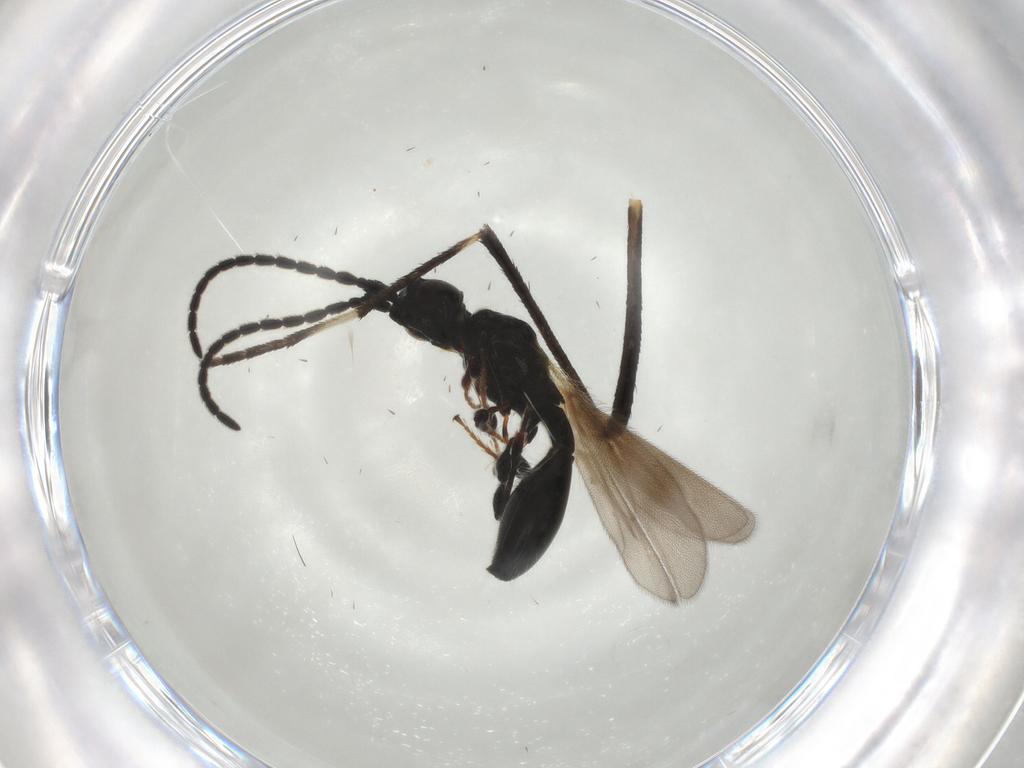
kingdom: Animalia
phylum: Arthropoda
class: Insecta
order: Hymenoptera
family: Diapriidae
